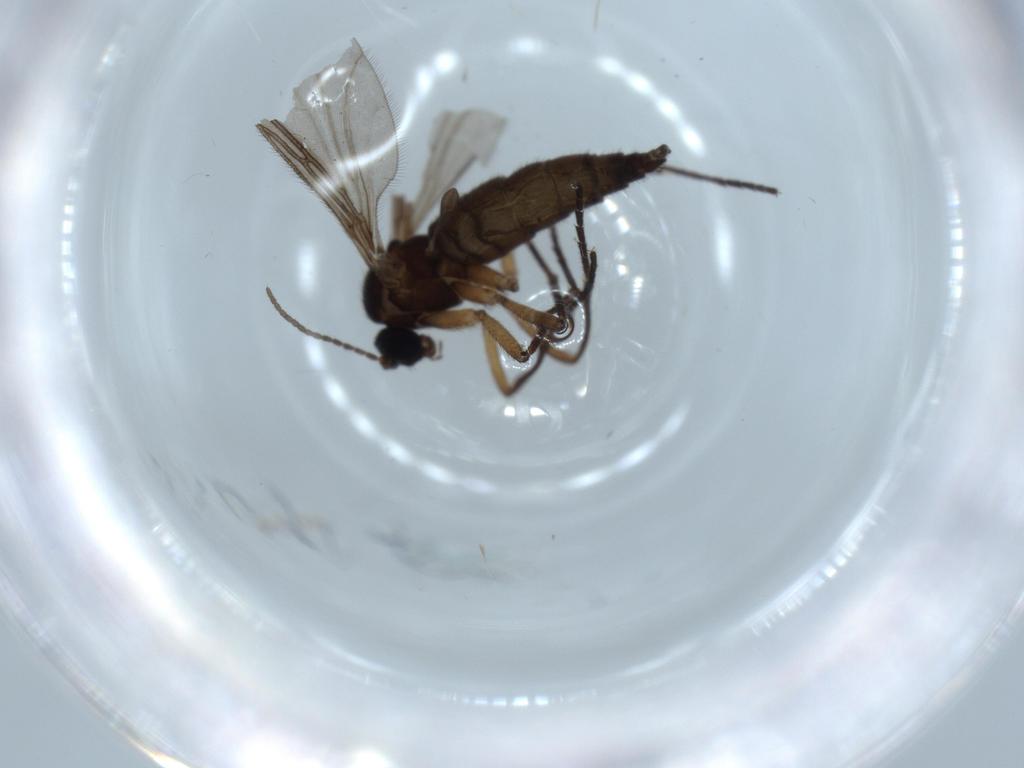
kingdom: Animalia
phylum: Arthropoda
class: Insecta
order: Diptera
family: Sciaridae
